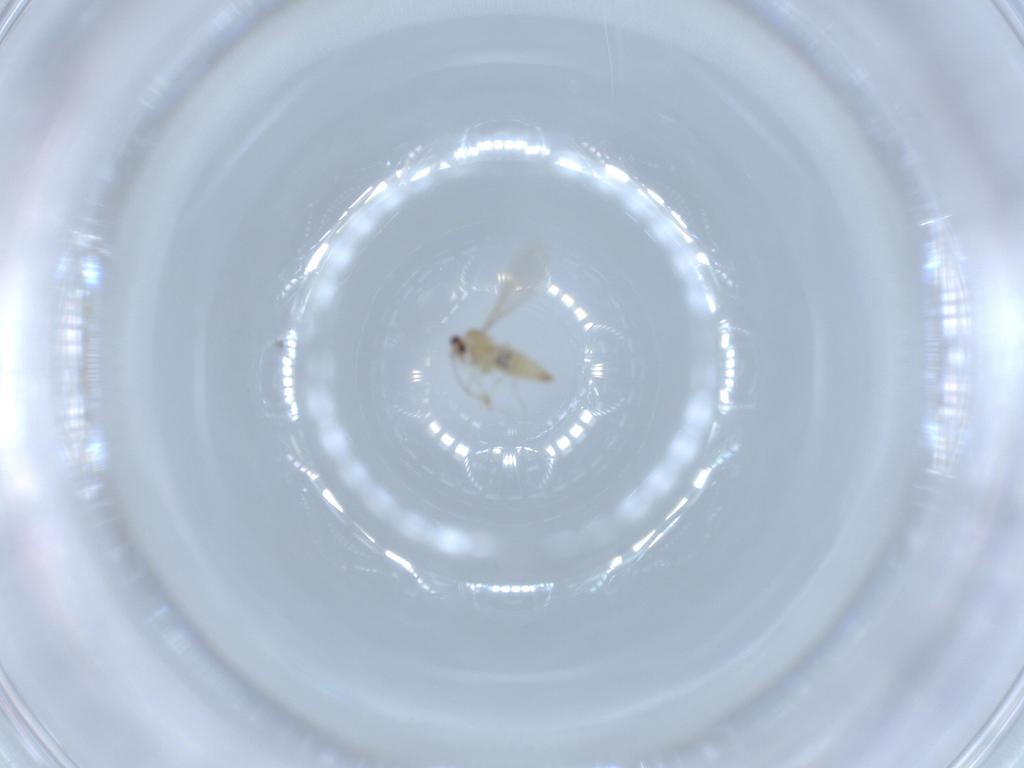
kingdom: Animalia
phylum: Arthropoda
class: Insecta
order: Diptera
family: Cecidomyiidae
